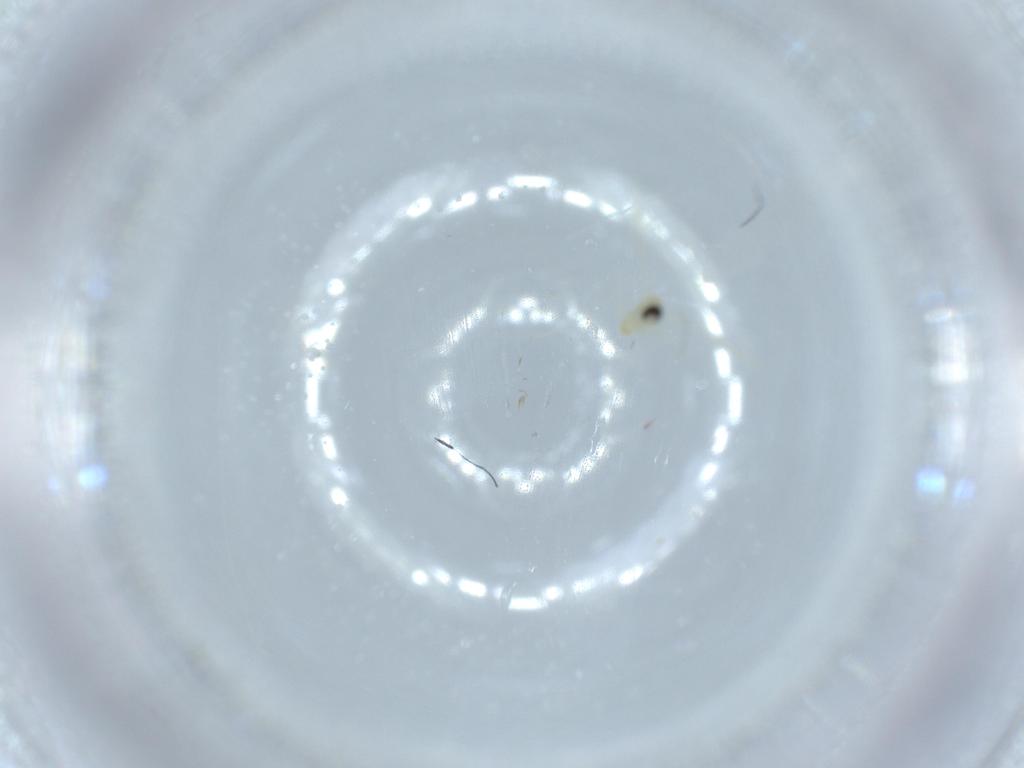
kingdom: Animalia
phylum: Arthropoda
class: Insecta
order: Diptera
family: Cecidomyiidae
